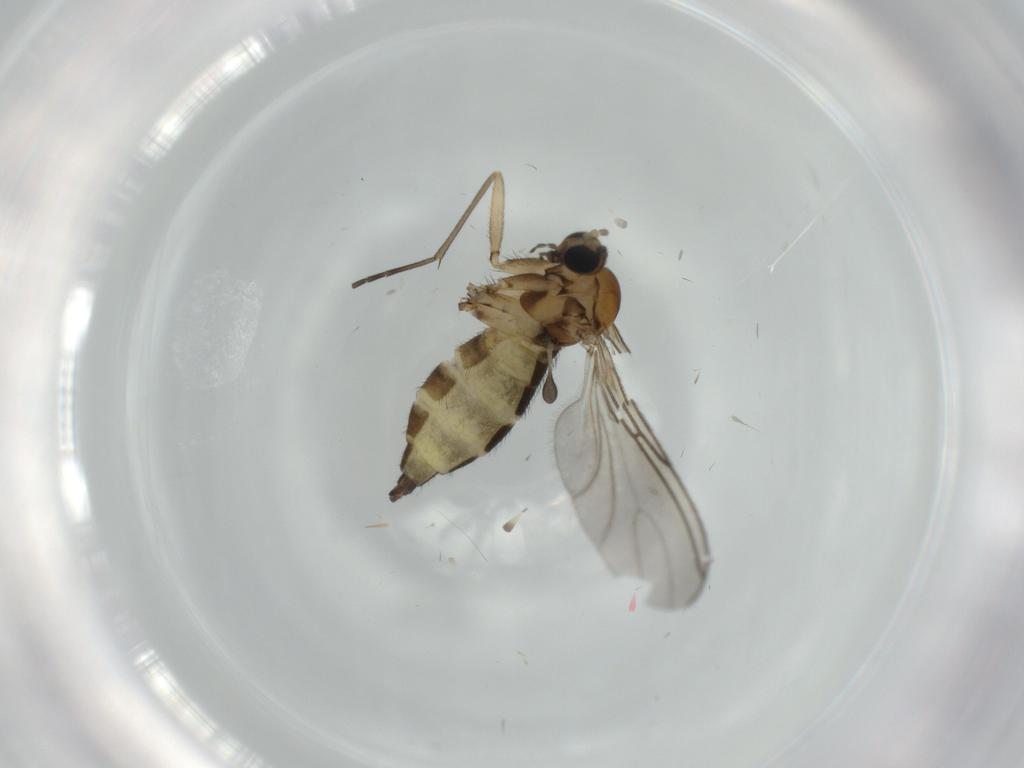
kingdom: Animalia
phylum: Arthropoda
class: Insecta
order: Diptera
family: Sciaridae
